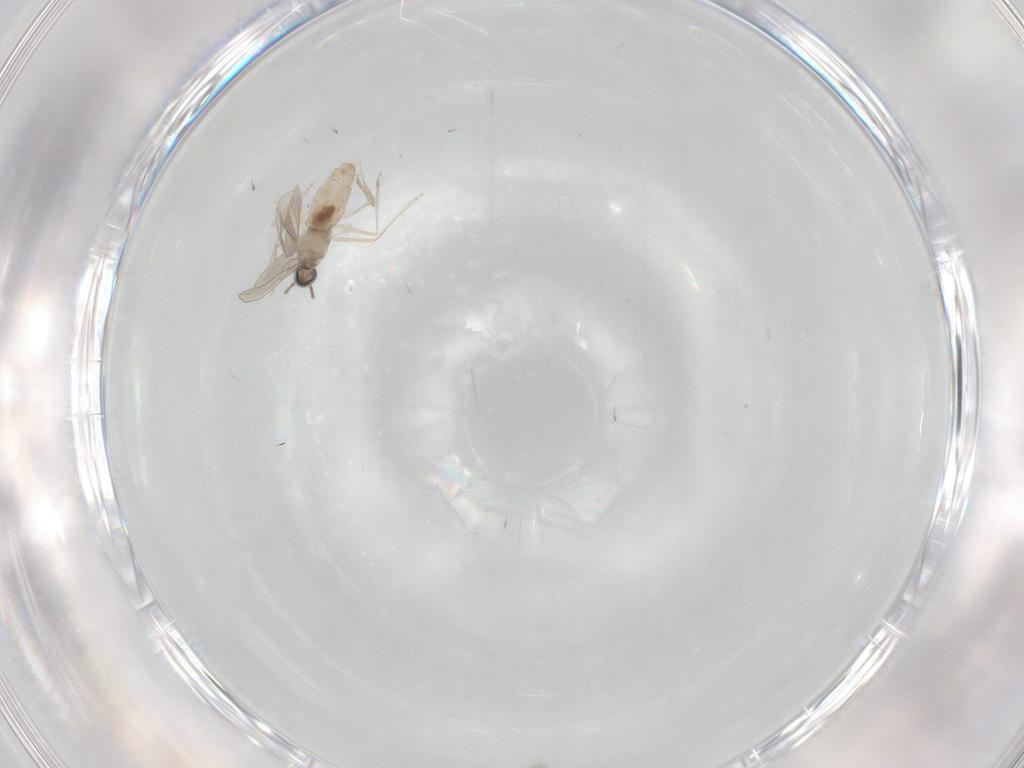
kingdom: Animalia
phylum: Arthropoda
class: Insecta
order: Diptera
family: Cecidomyiidae
